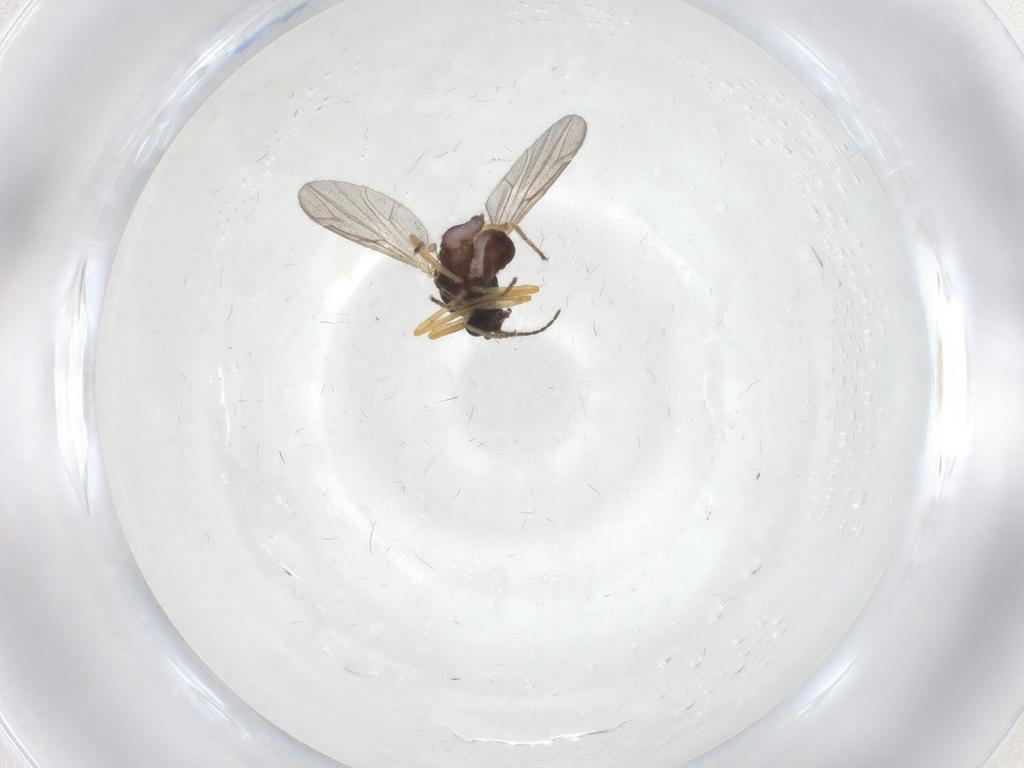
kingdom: Animalia
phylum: Arthropoda
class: Insecta
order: Diptera
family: Ceratopogonidae
